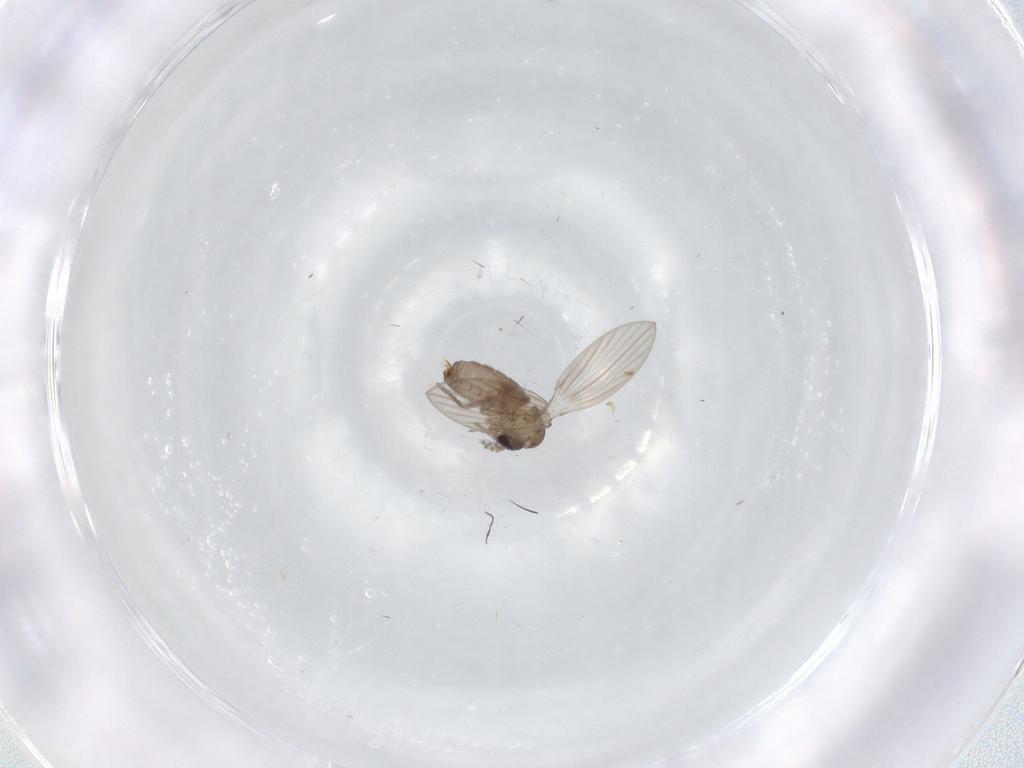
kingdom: Animalia
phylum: Arthropoda
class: Insecta
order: Diptera
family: Psychodidae
